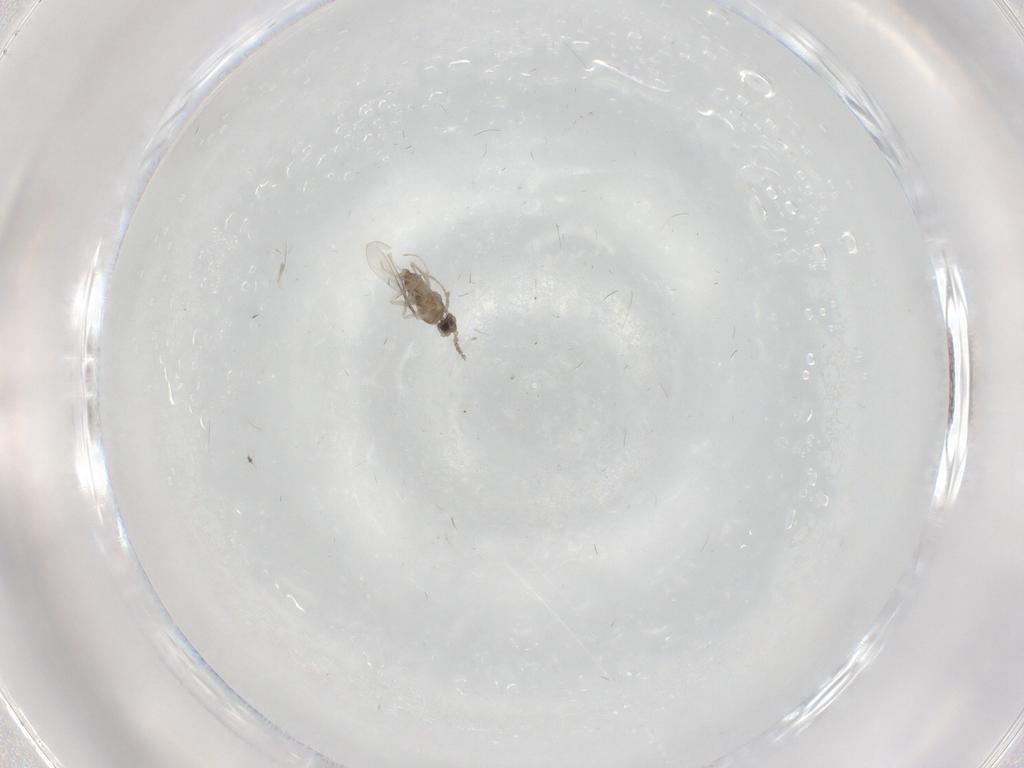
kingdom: Animalia
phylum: Arthropoda
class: Insecta
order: Diptera
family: Cecidomyiidae
